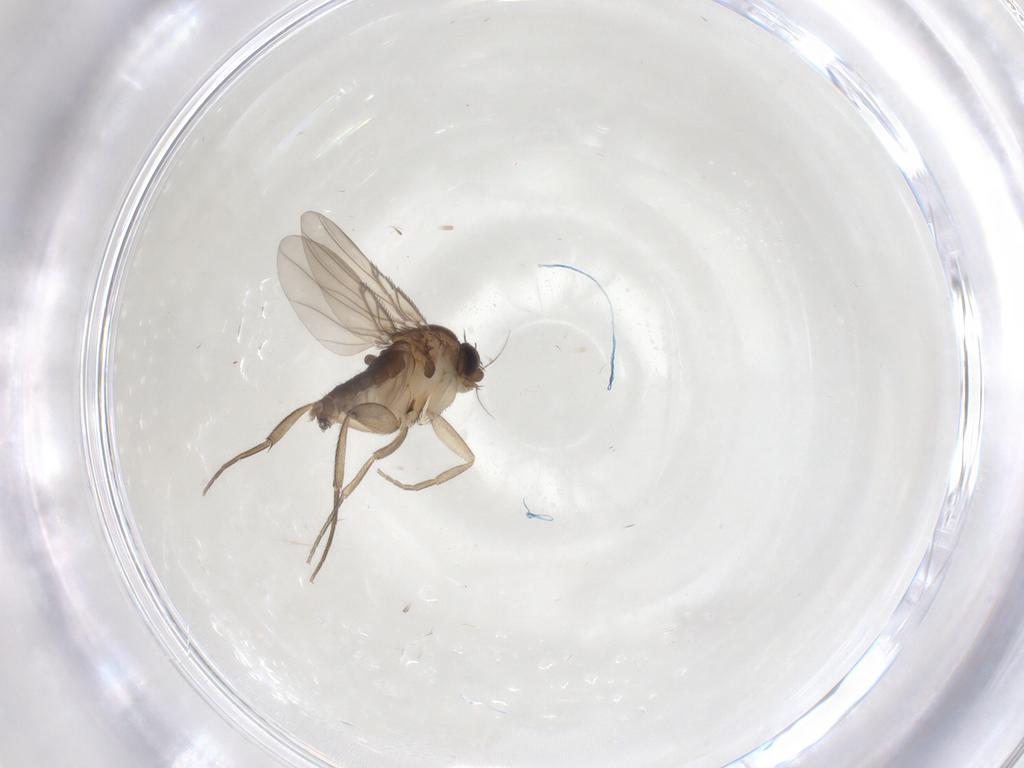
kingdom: Animalia
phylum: Arthropoda
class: Insecta
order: Diptera
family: Phoridae
